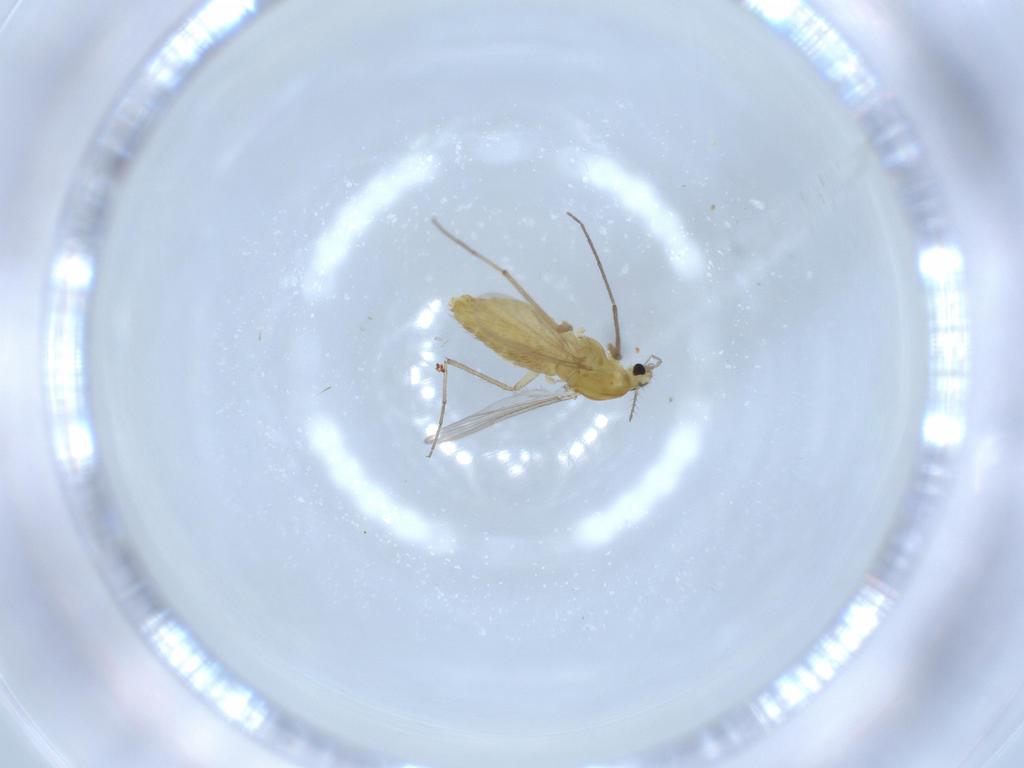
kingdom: Animalia
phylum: Arthropoda
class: Insecta
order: Diptera
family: Chironomidae
